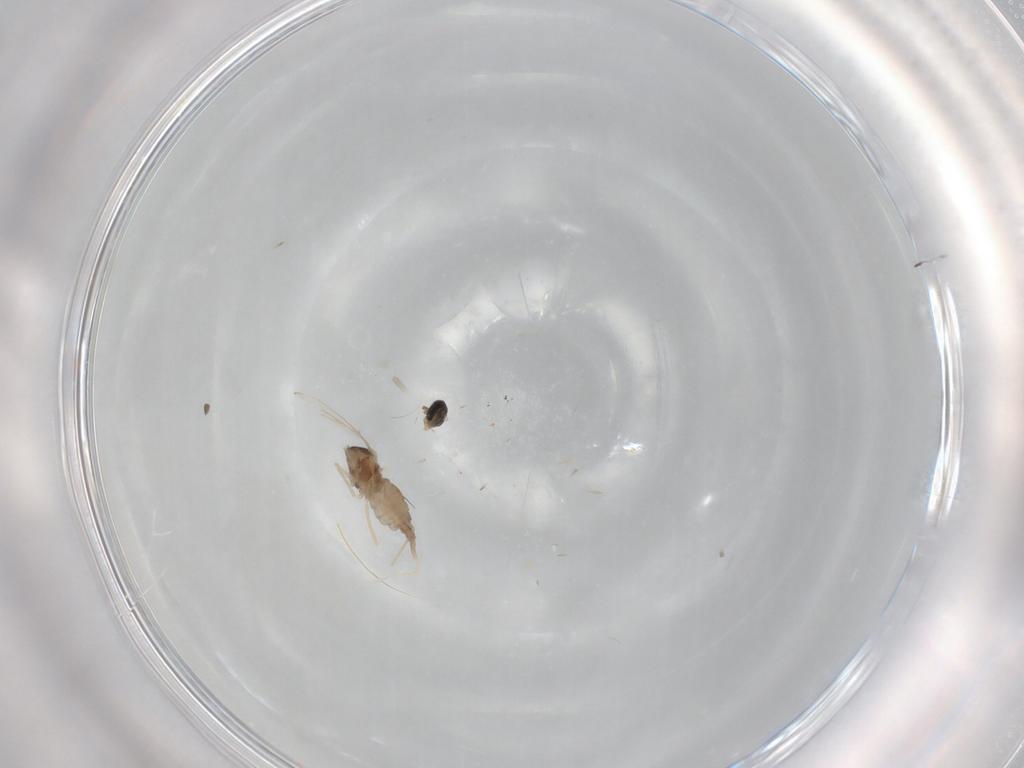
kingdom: Animalia
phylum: Arthropoda
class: Insecta
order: Diptera
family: Cecidomyiidae
